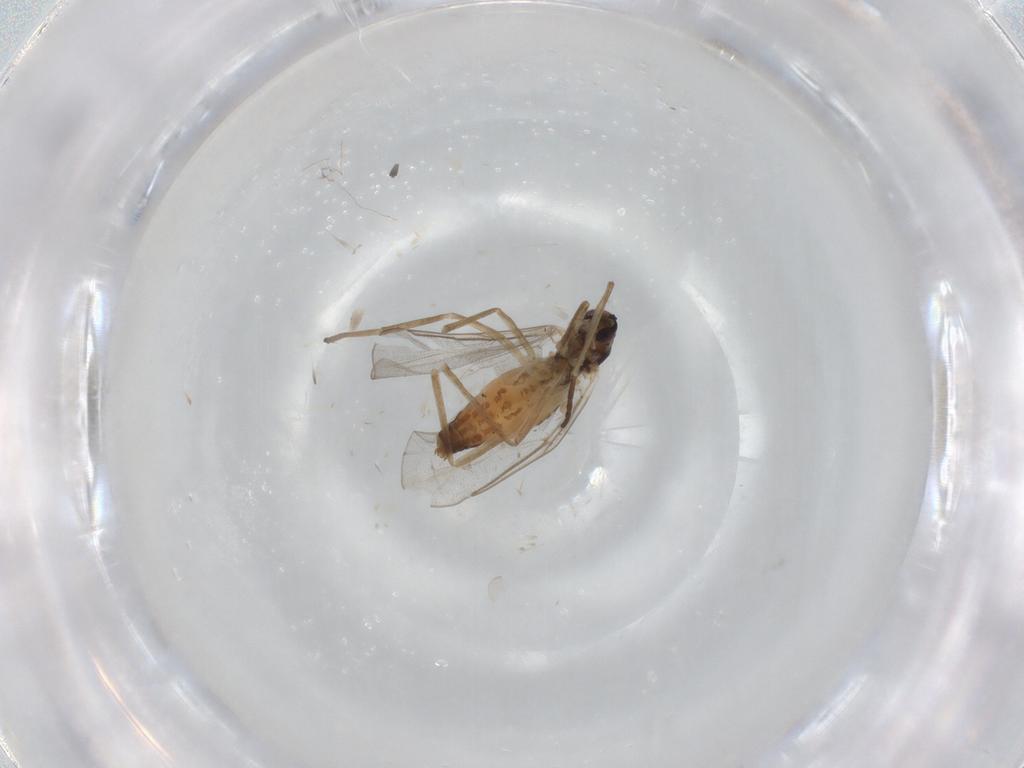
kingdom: Animalia
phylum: Arthropoda
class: Insecta
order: Diptera
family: Cecidomyiidae
